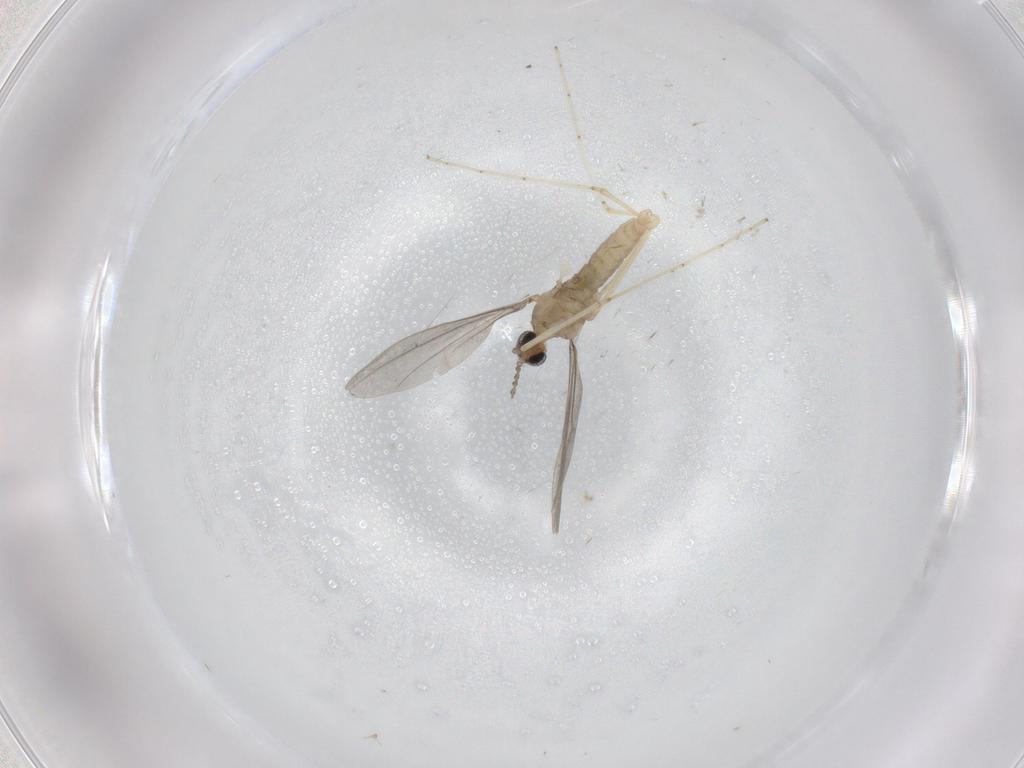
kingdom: Animalia
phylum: Arthropoda
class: Insecta
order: Diptera
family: Cecidomyiidae
